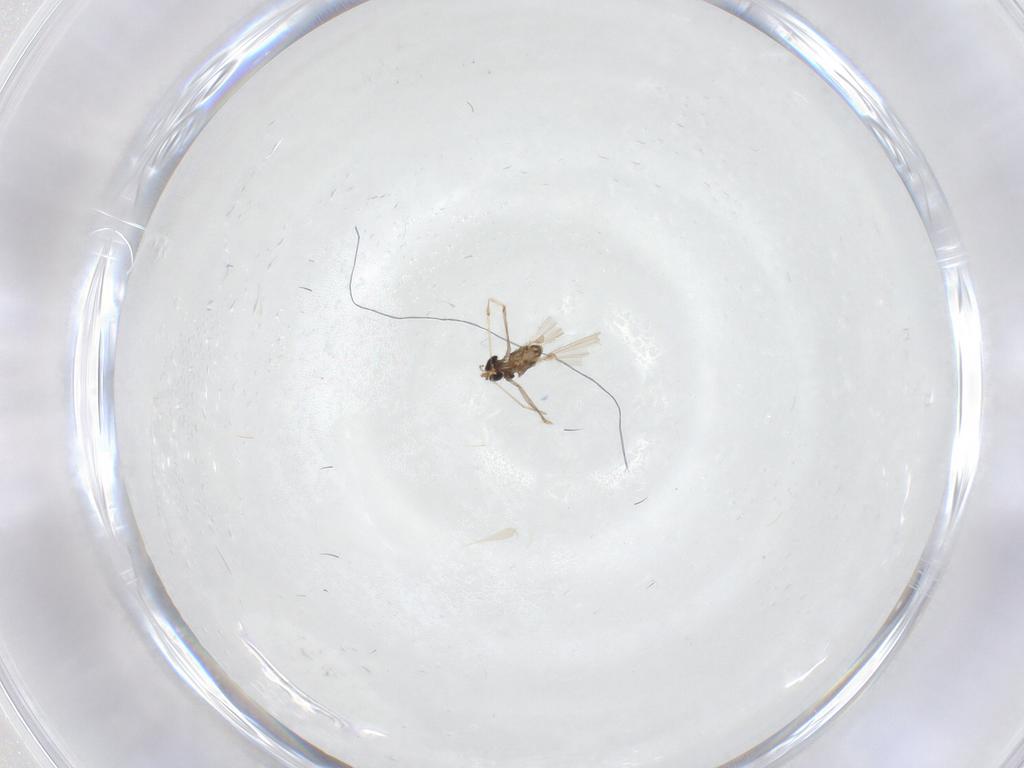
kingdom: Animalia
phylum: Arthropoda
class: Insecta
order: Diptera
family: Chironomidae
